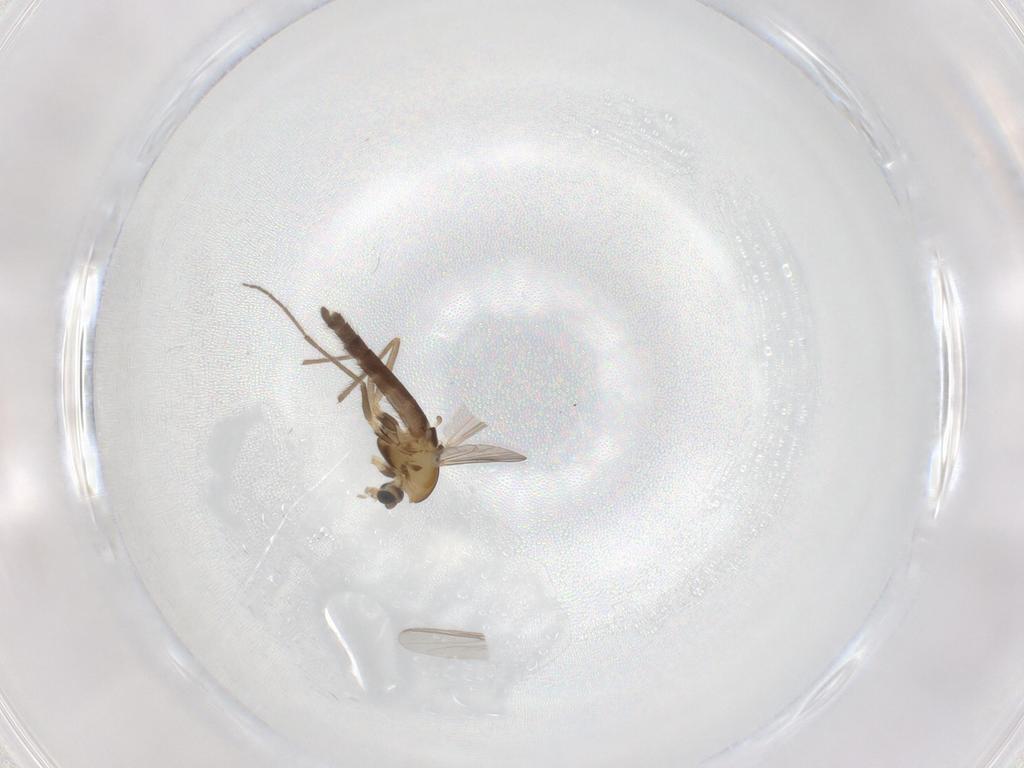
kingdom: Animalia
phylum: Arthropoda
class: Insecta
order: Diptera
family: Chironomidae
